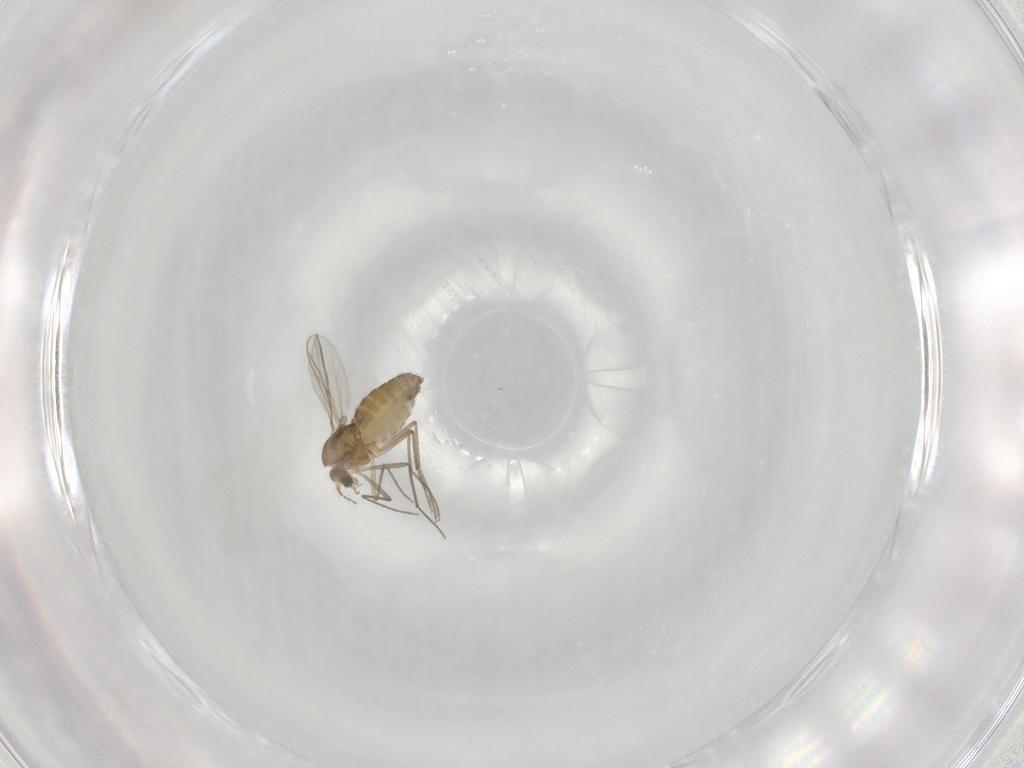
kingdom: Animalia
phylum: Arthropoda
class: Insecta
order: Diptera
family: Chironomidae
